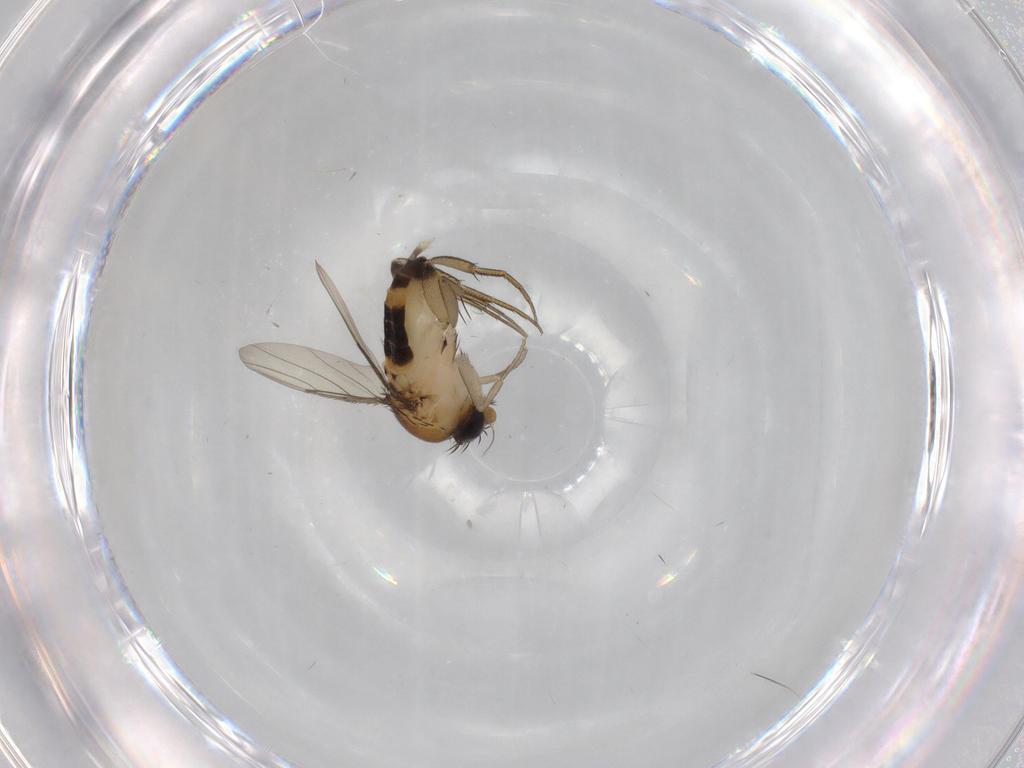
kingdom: Animalia
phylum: Arthropoda
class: Insecta
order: Diptera
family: Phoridae
